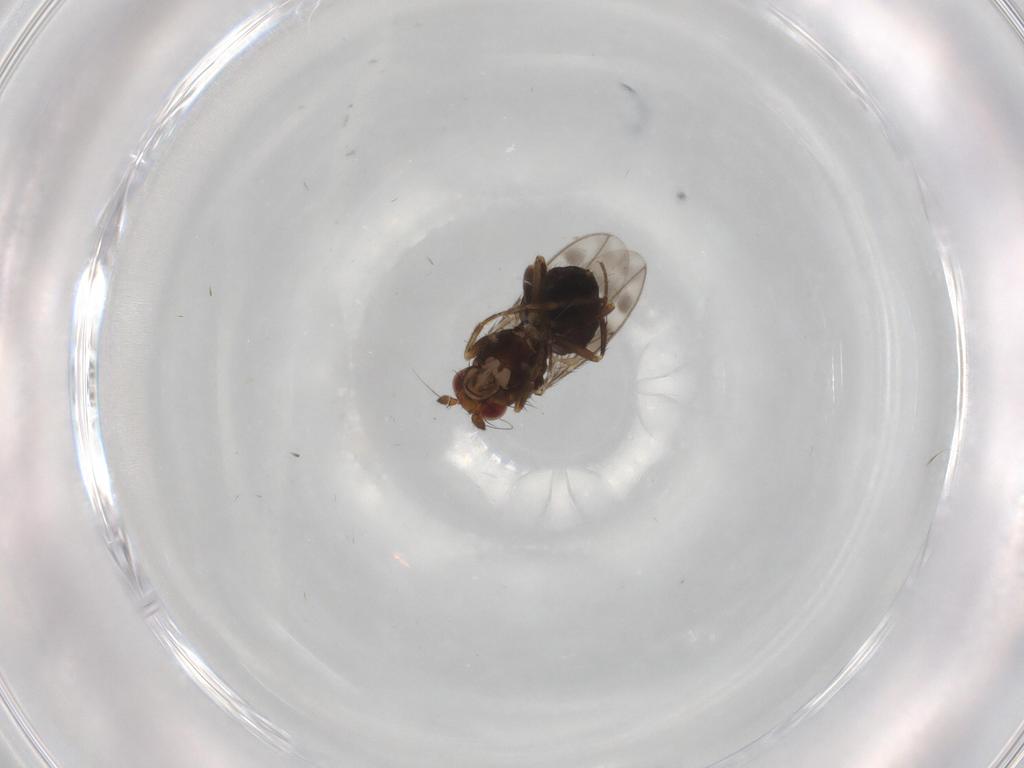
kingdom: Animalia
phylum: Arthropoda
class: Insecta
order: Diptera
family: Sphaeroceridae
